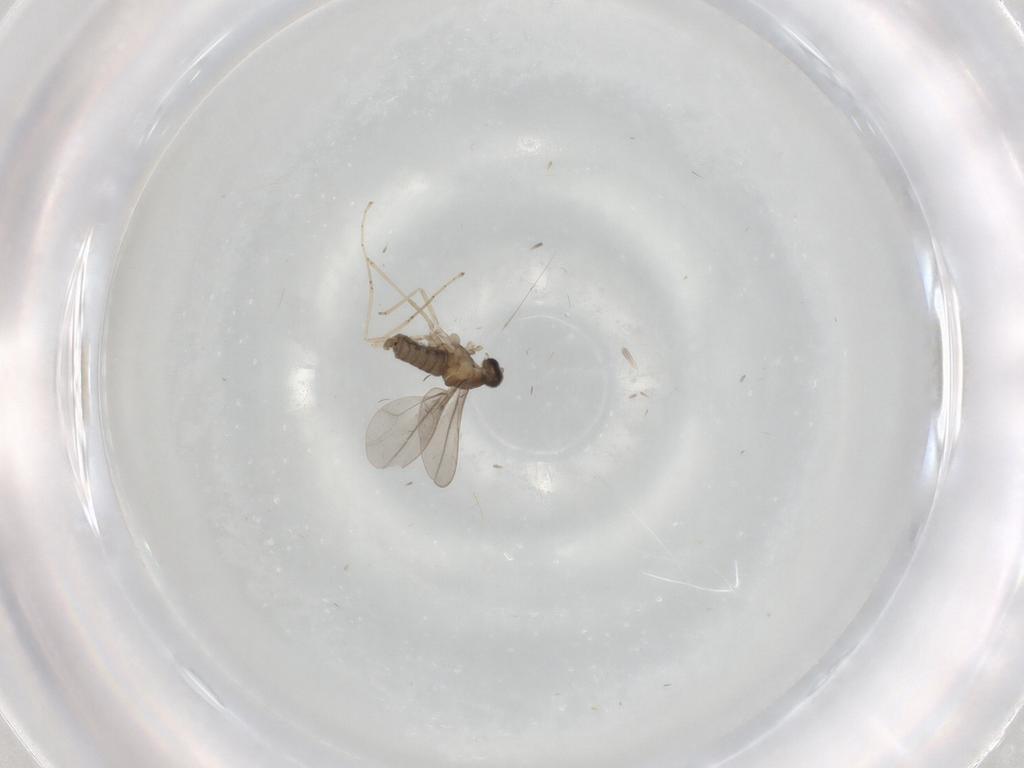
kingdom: Animalia
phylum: Arthropoda
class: Insecta
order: Diptera
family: Cecidomyiidae
